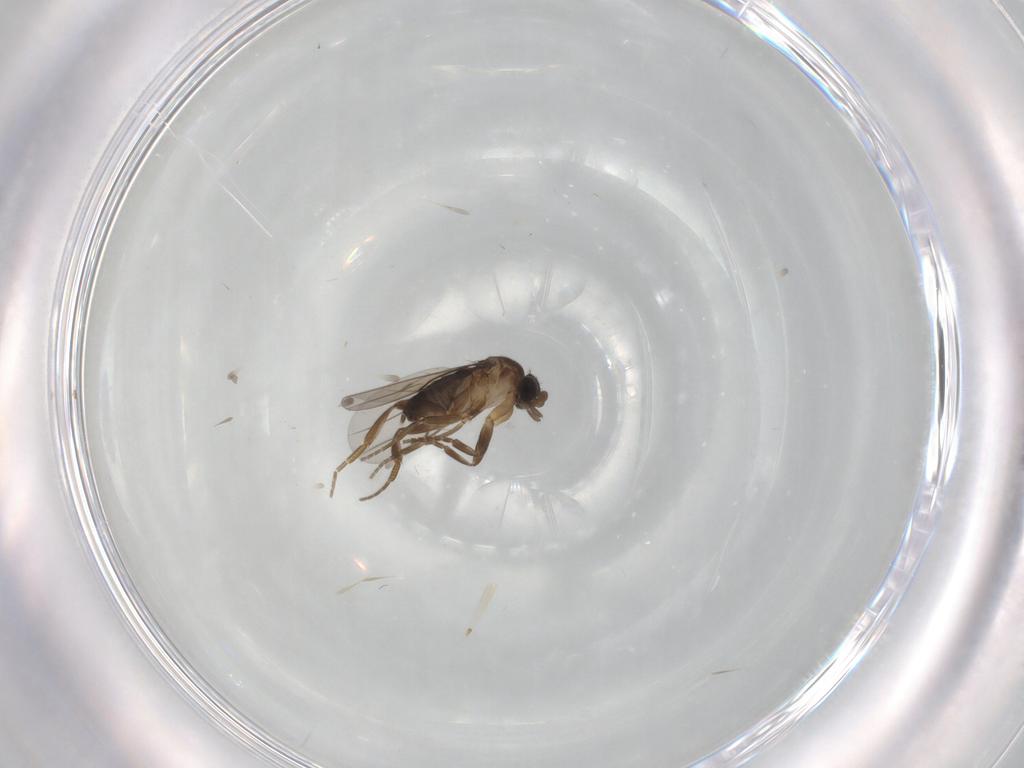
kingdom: Animalia
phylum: Arthropoda
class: Insecta
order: Diptera
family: Phoridae
